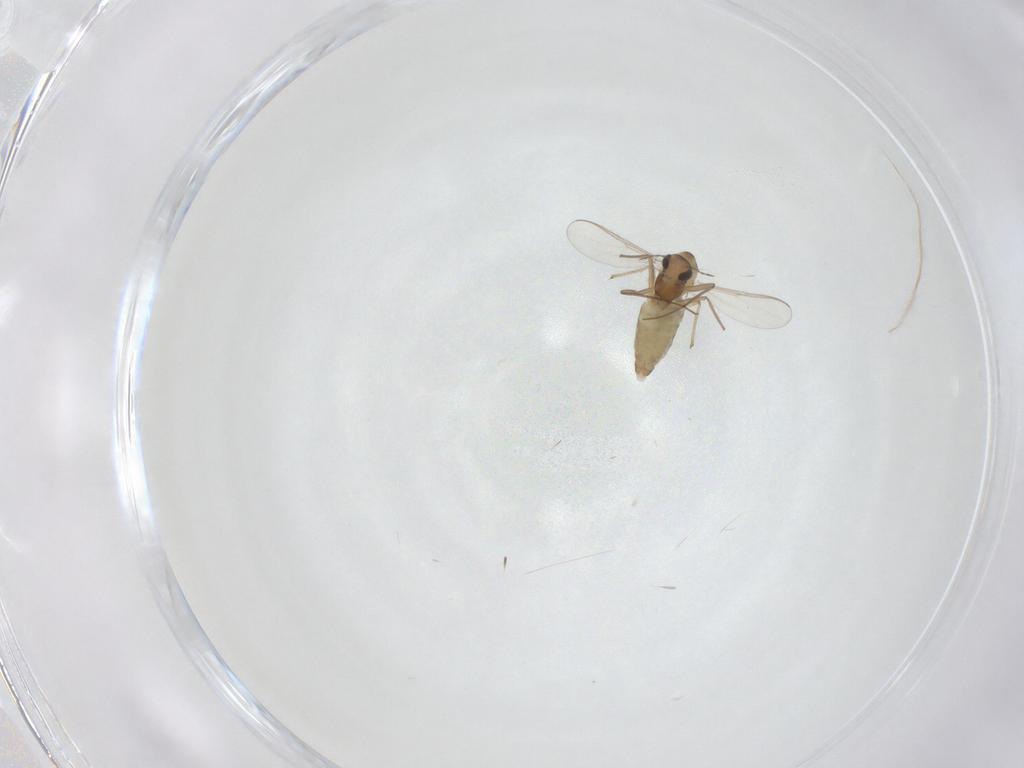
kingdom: Animalia
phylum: Arthropoda
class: Insecta
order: Diptera
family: Chironomidae
